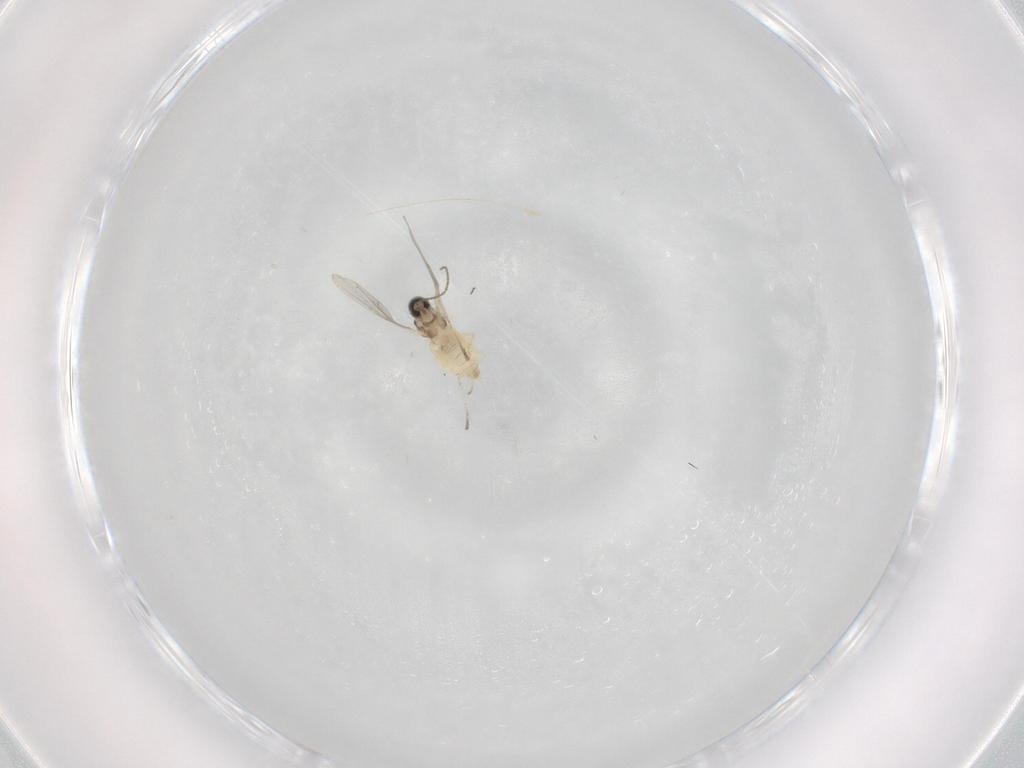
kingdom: Animalia
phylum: Arthropoda
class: Insecta
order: Diptera
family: Cecidomyiidae
